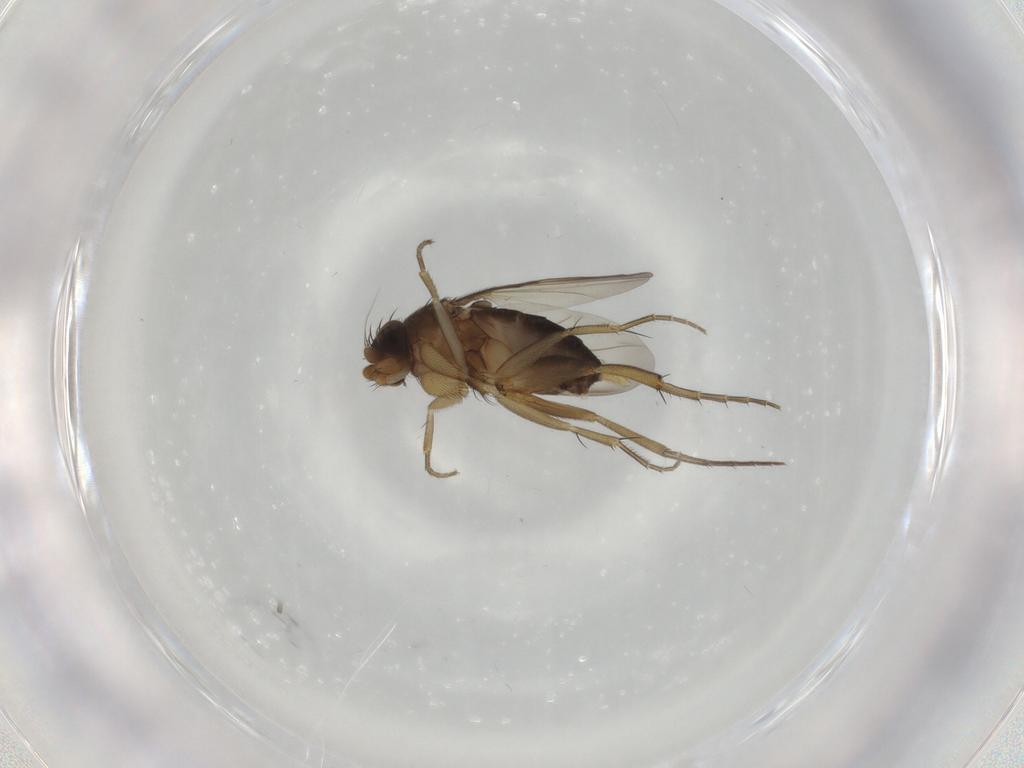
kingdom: Animalia
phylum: Arthropoda
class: Insecta
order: Diptera
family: Phoridae
